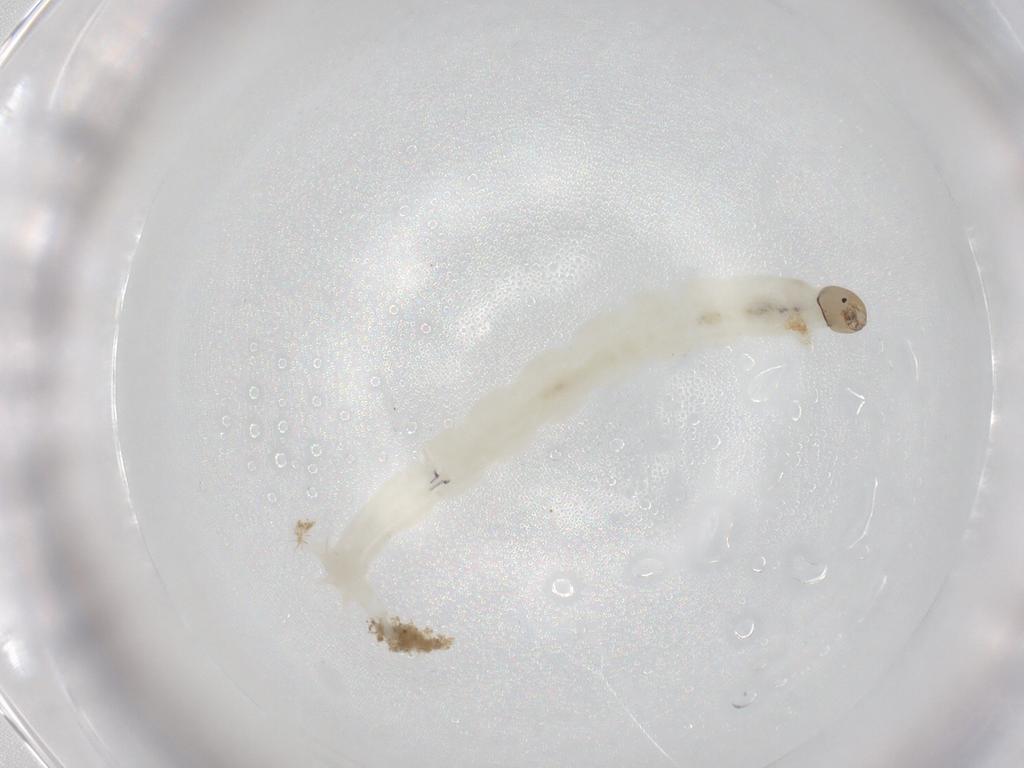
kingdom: Animalia
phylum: Arthropoda
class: Insecta
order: Diptera
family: Chironomidae
